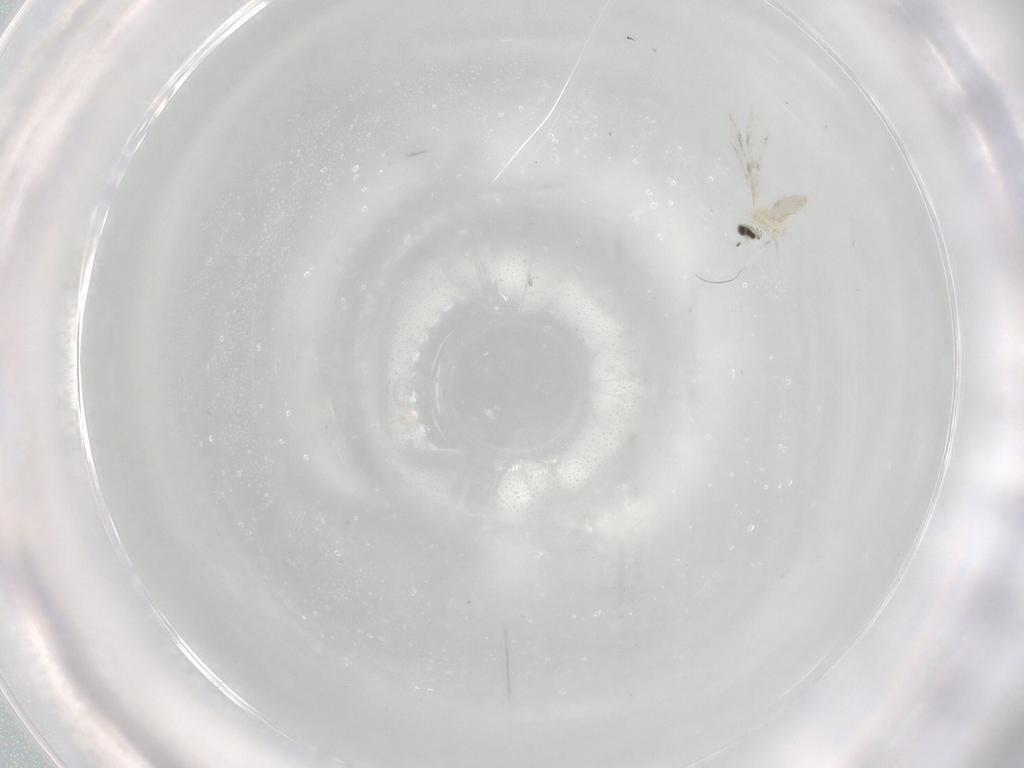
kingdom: Animalia
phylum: Arthropoda
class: Insecta
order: Diptera
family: Cecidomyiidae
